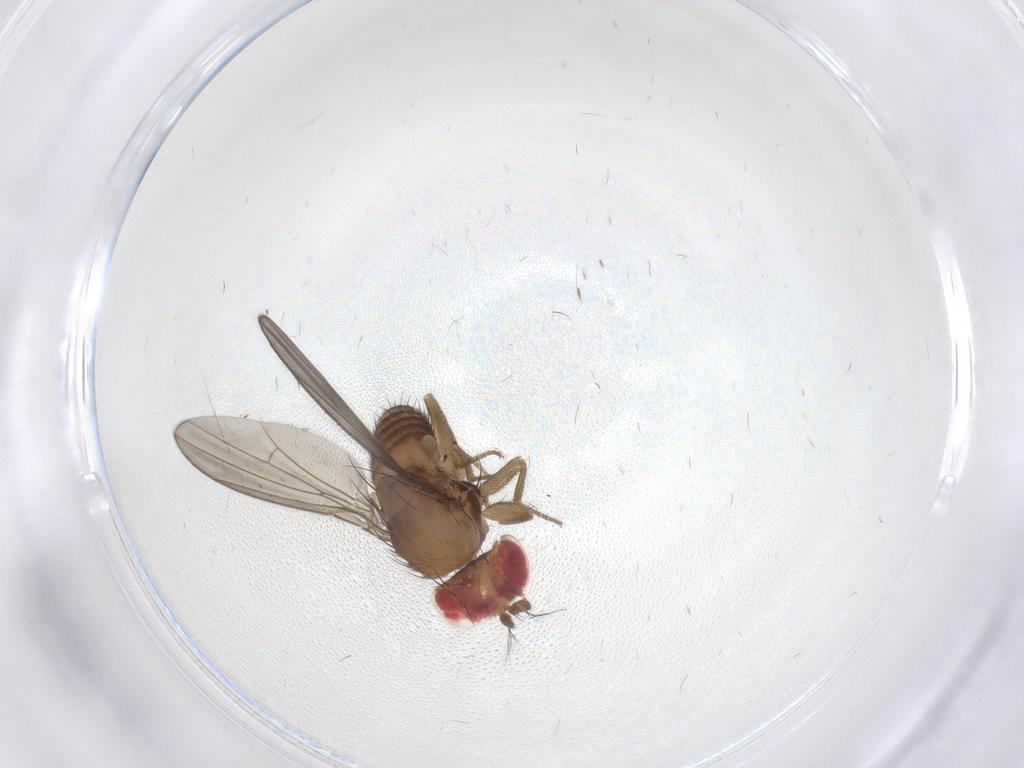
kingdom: Animalia
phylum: Arthropoda
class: Insecta
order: Diptera
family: Drosophilidae
